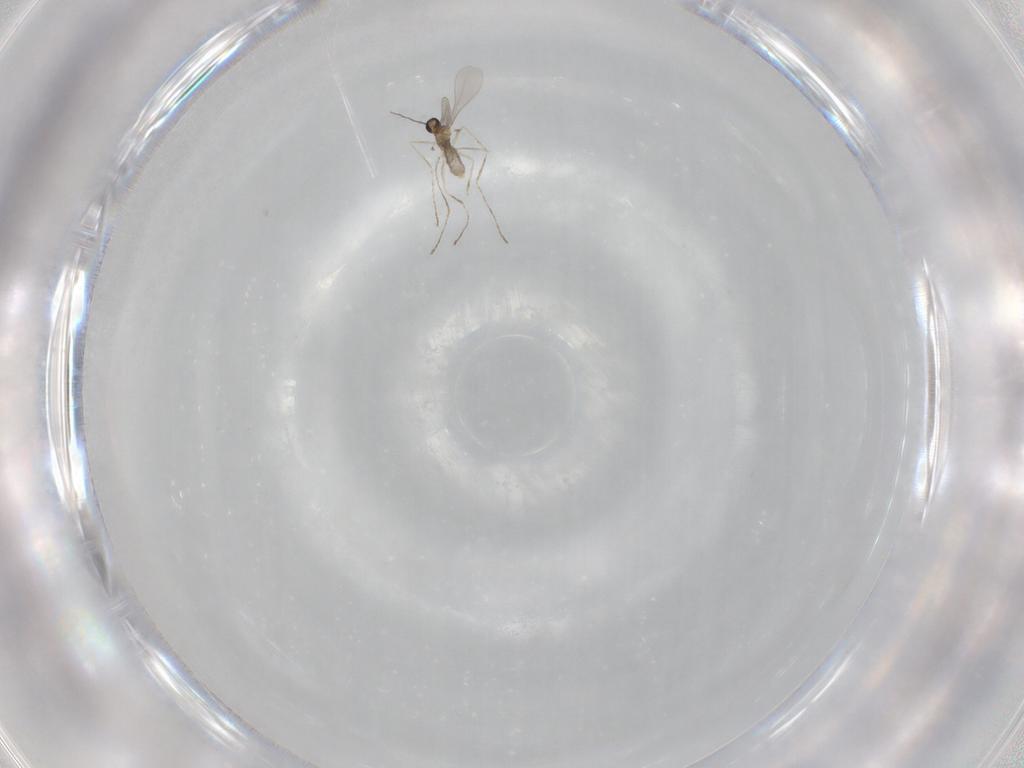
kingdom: Animalia
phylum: Arthropoda
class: Insecta
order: Diptera
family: Cecidomyiidae
